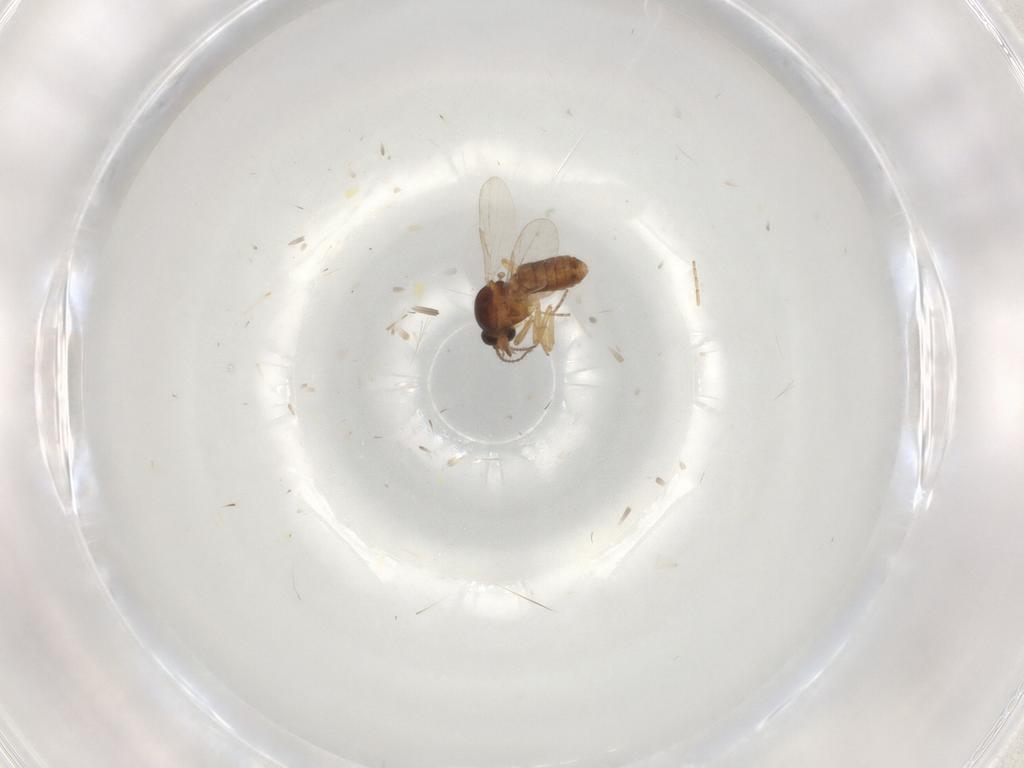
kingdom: Animalia
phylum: Arthropoda
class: Insecta
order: Diptera
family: Ceratopogonidae
